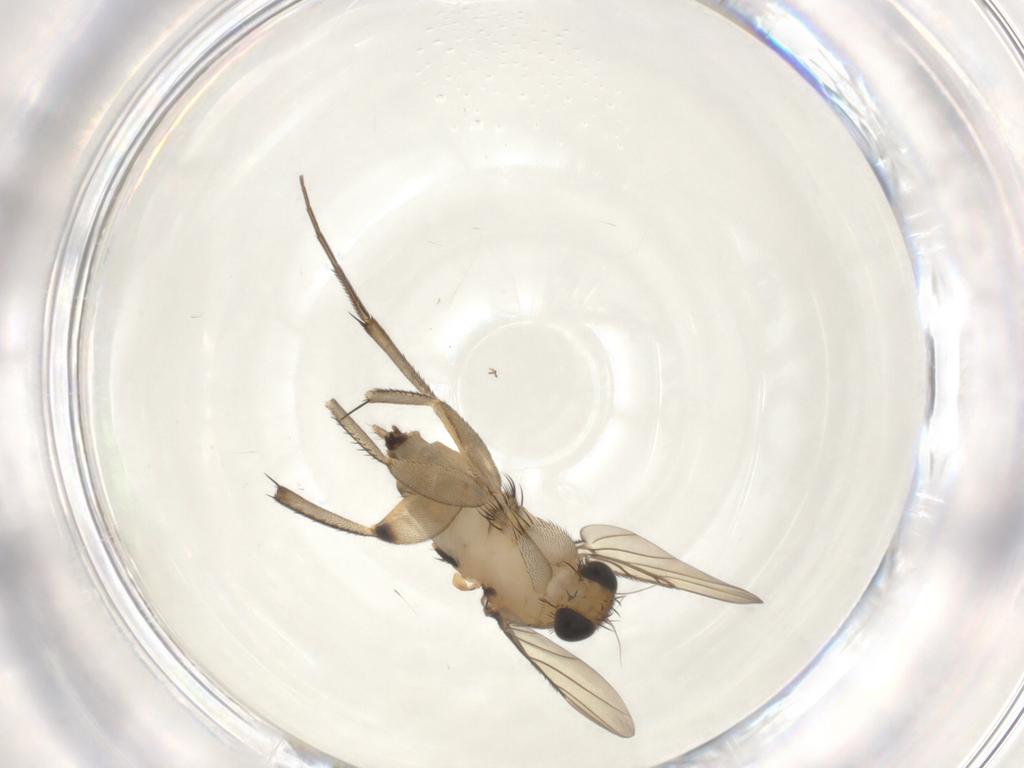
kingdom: Animalia
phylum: Arthropoda
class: Insecta
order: Diptera
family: Phoridae
